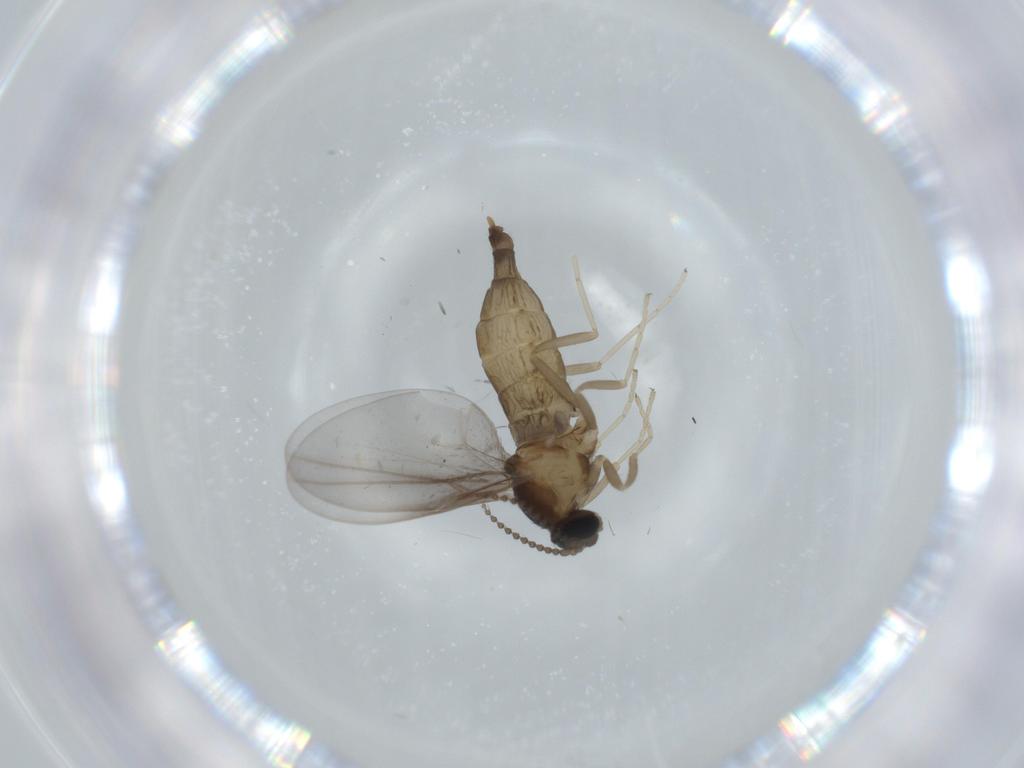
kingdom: Animalia
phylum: Arthropoda
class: Insecta
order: Diptera
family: Cecidomyiidae
